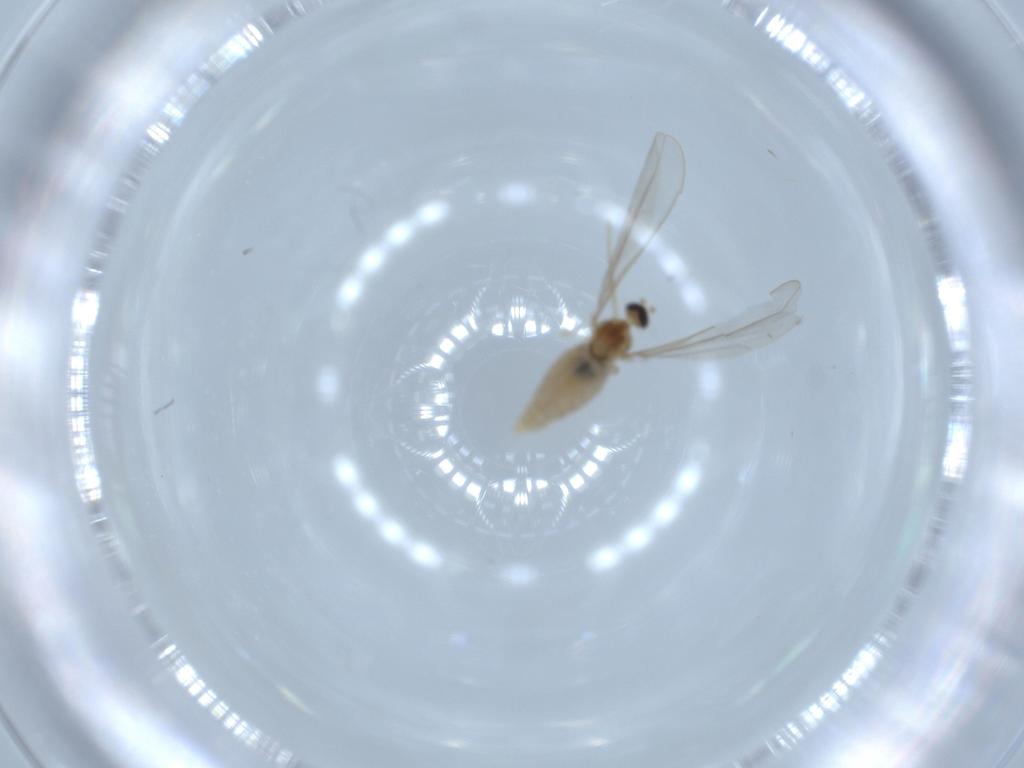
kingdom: Animalia
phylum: Arthropoda
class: Insecta
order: Diptera
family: Cecidomyiidae
